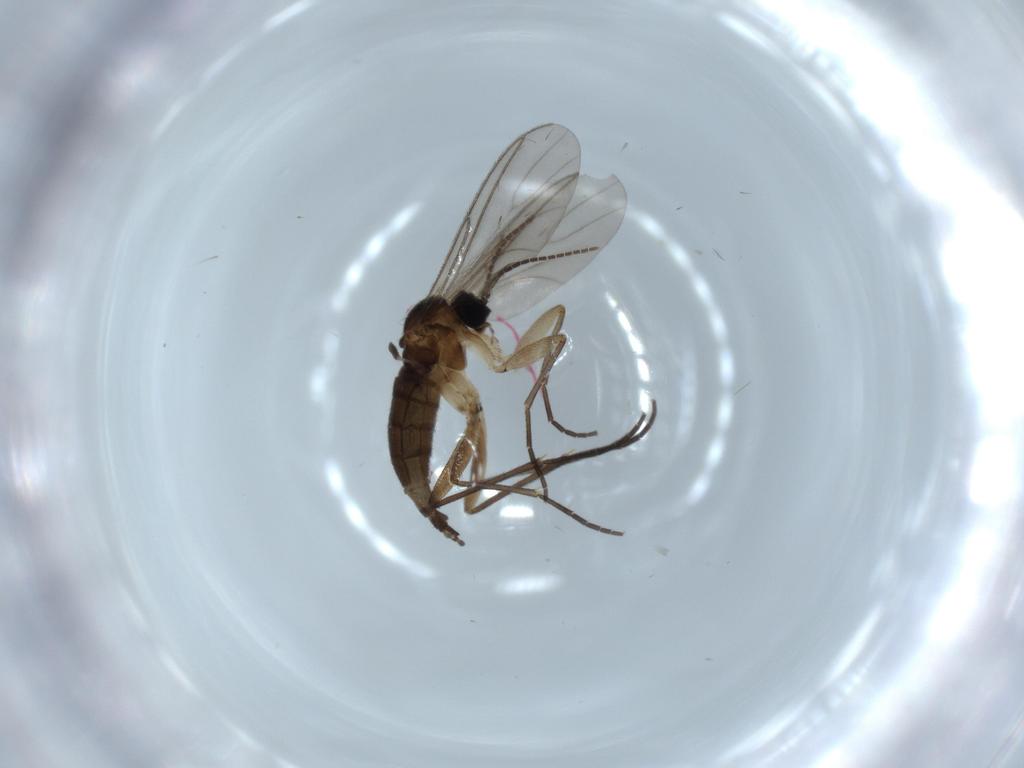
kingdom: Animalia
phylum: Arthropoda
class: Insecta
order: Diptera
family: Sciaridae
